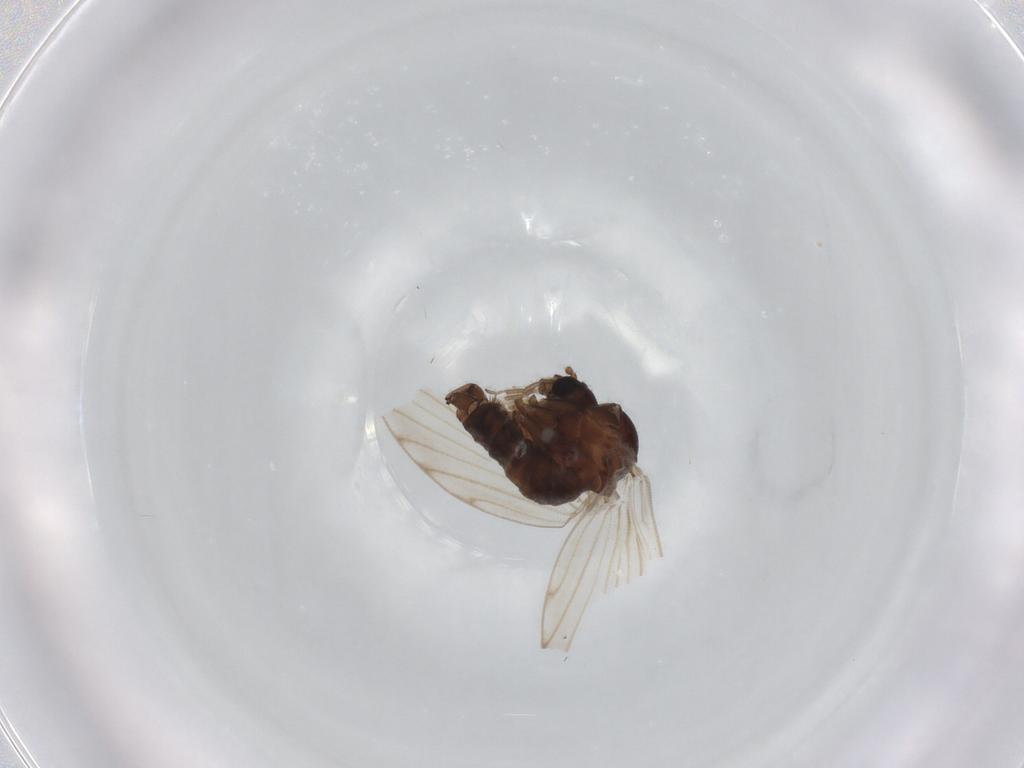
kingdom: Animalia
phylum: Arthropoda
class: Insecta
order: Diptera
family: Psychodidae
